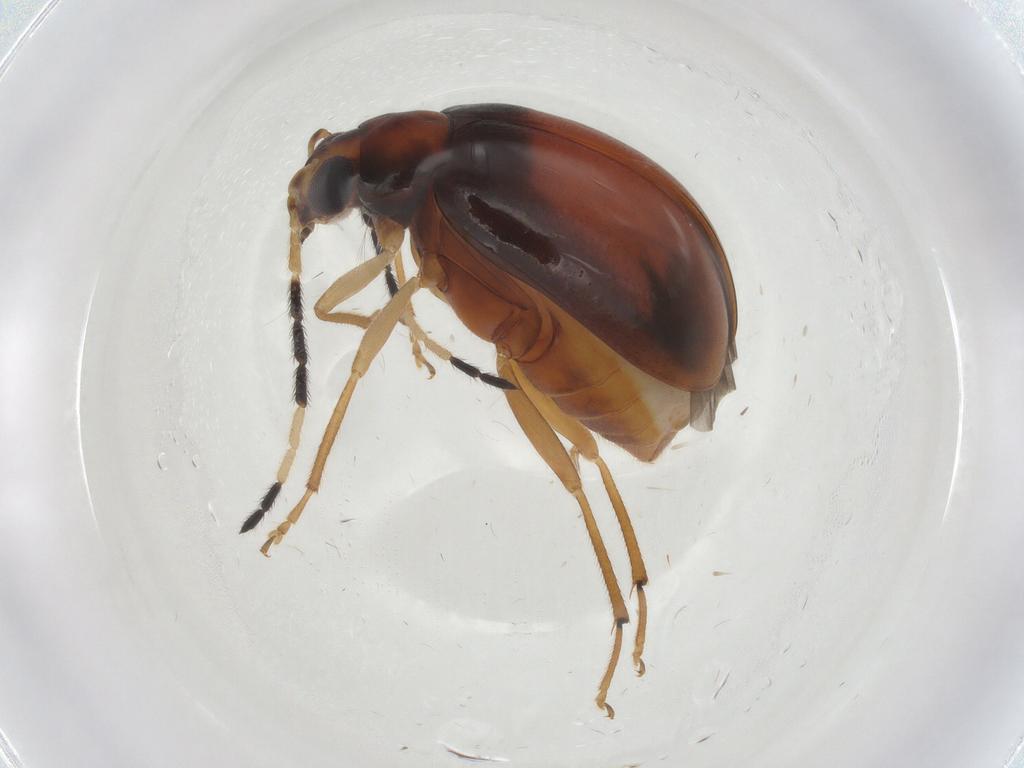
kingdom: Animalia
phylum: Arthropoda
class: Insecta
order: Coleoptera
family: Chrysomelidae
